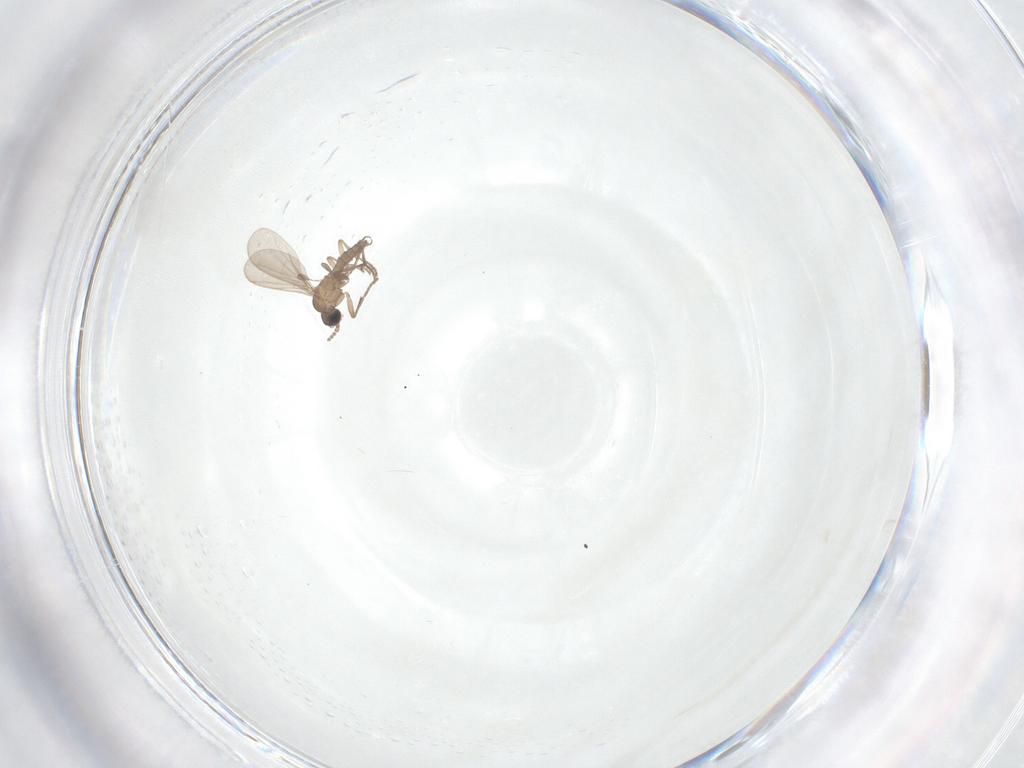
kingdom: Animalia
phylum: Arthropoda
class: Insecta
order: Diptera
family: Sciaridae
